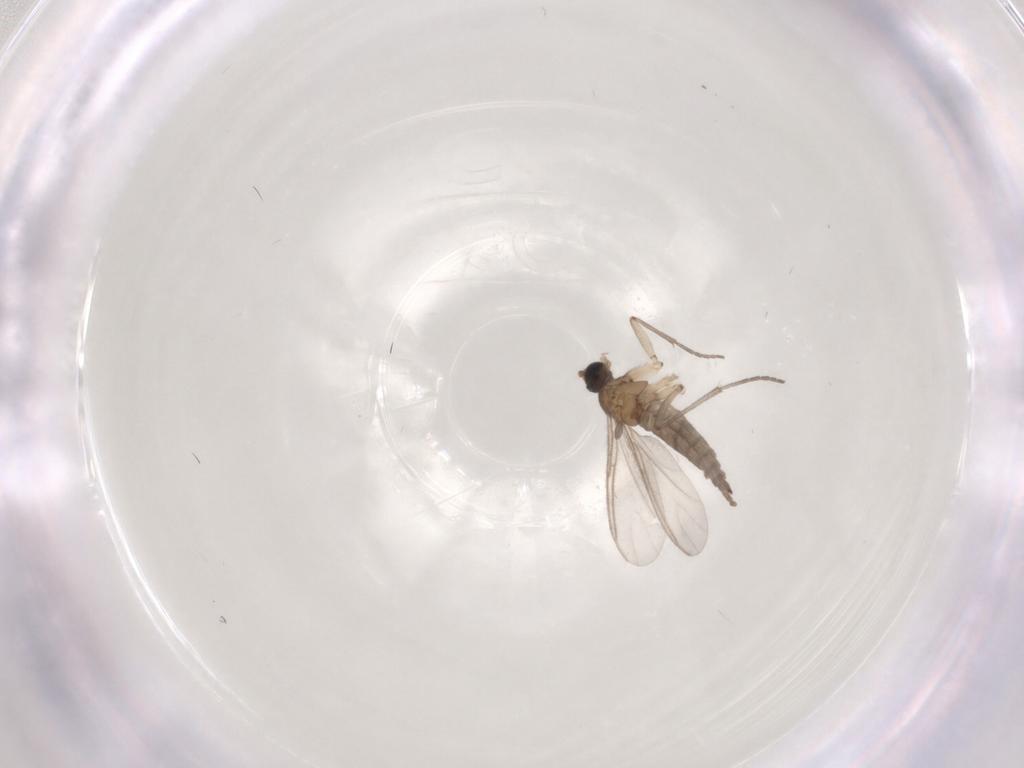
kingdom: Animalia
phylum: Arthropoda
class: Insecta
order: Diptera
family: Sciaridae
